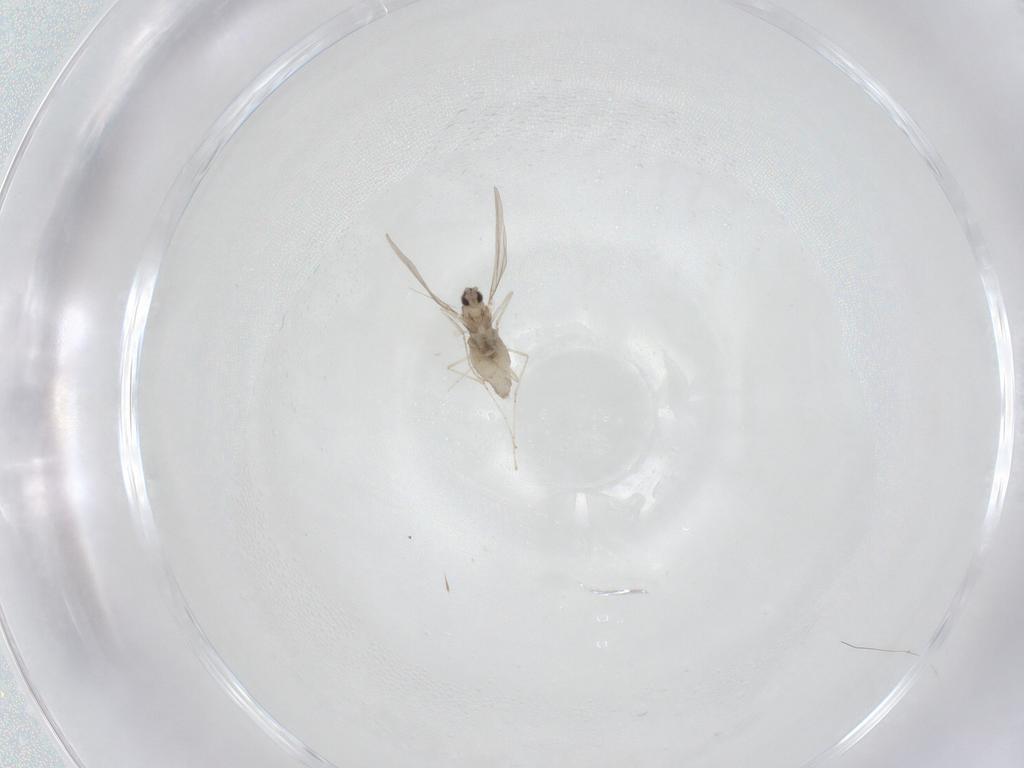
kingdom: Animalia
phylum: Arthropoda
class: Insecta
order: Diptera
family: Cecidomyiidae
